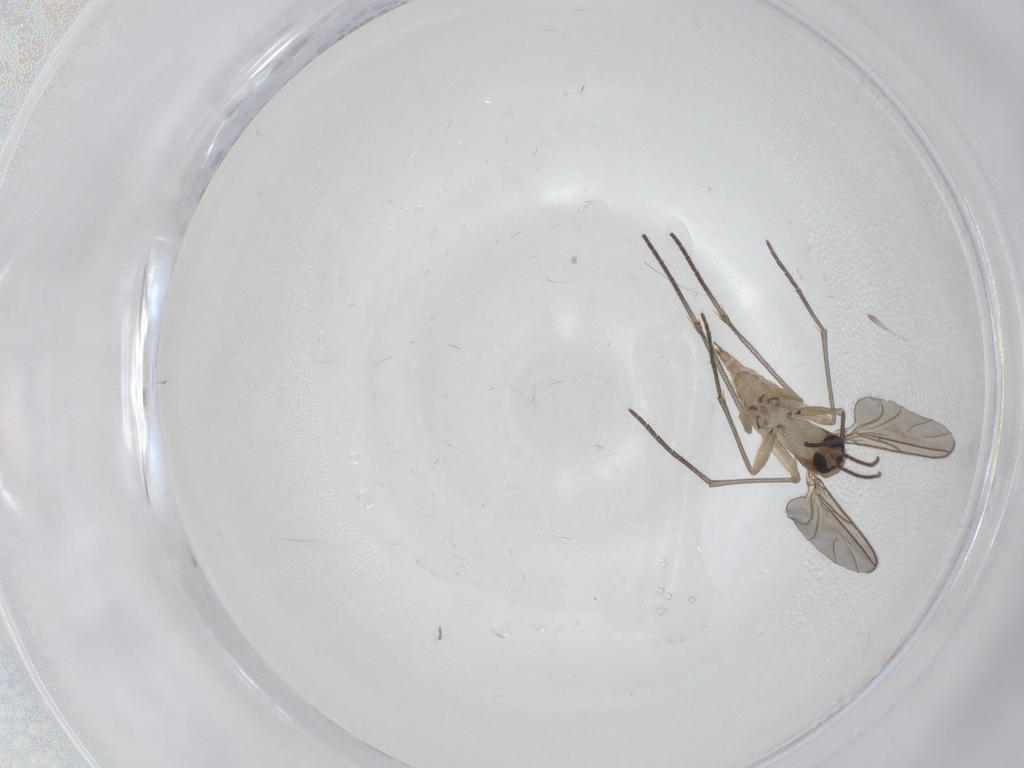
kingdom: Animalia
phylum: Arthropoda
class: Insecta
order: Diptera
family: Sciaridae
